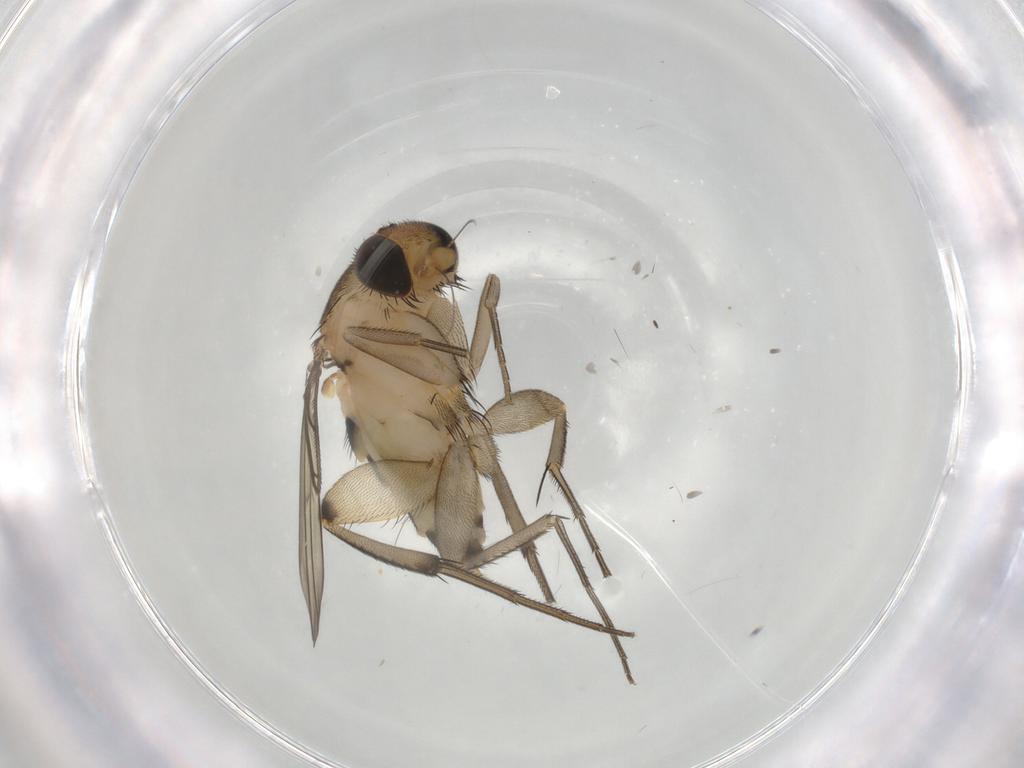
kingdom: Animalia
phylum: Arthropoda
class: Insecta
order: Diptera
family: Phoridae
